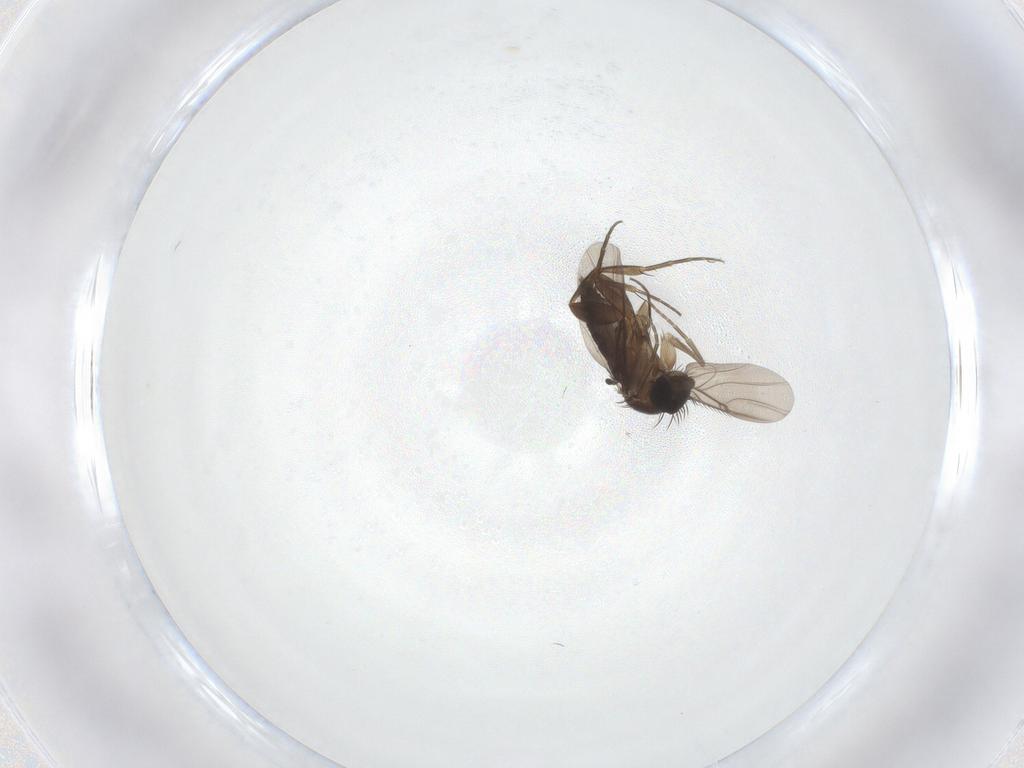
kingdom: Animalia
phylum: Arthropoda
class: Insecta
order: Diptera
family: Phoridae
